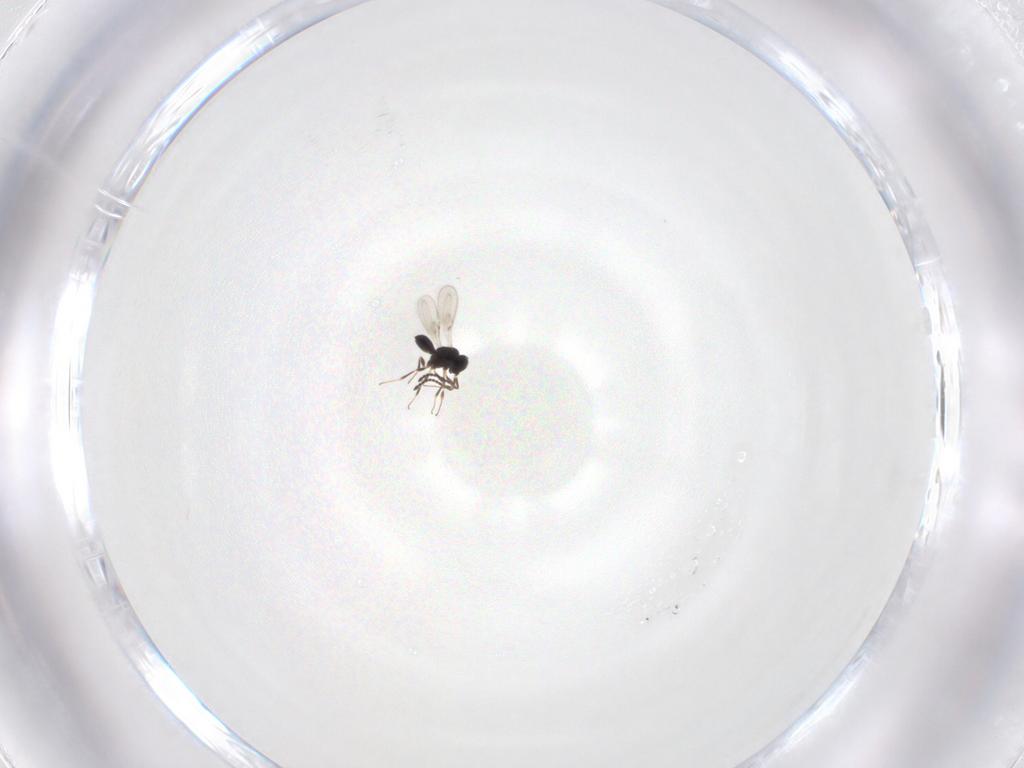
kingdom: Animalia
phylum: Arthropoda
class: Insecta
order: Hymenoptera
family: Scelionidae
